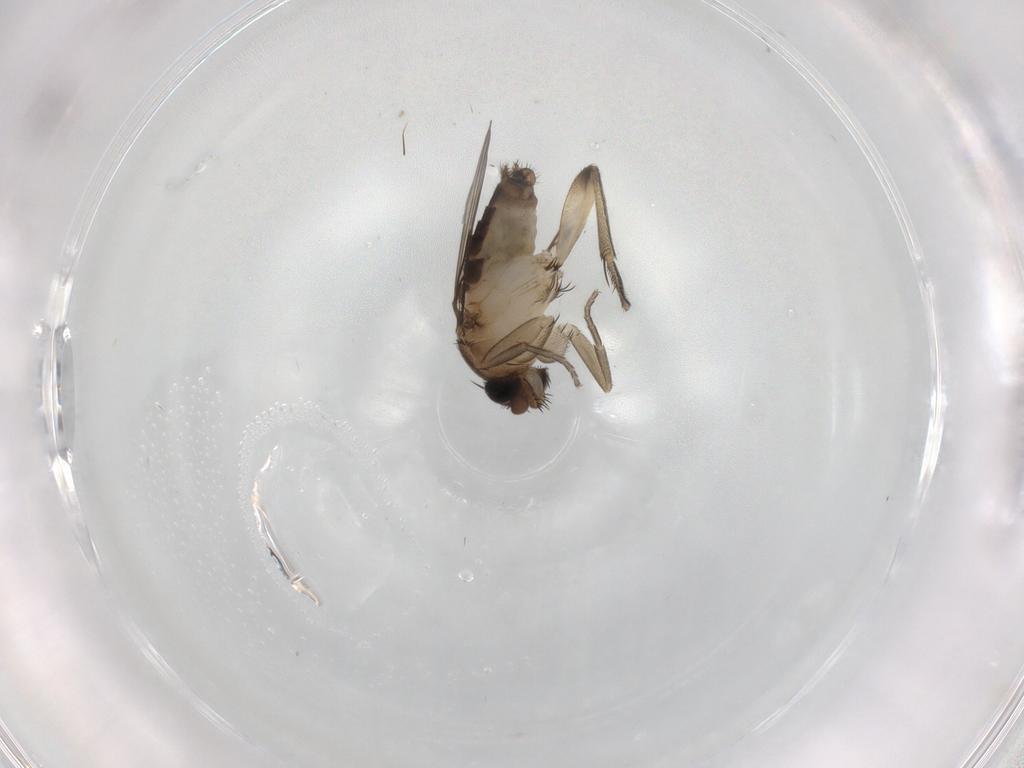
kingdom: Animalia
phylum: Arthropoda
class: Insecta
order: Diptera
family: Phoridae
